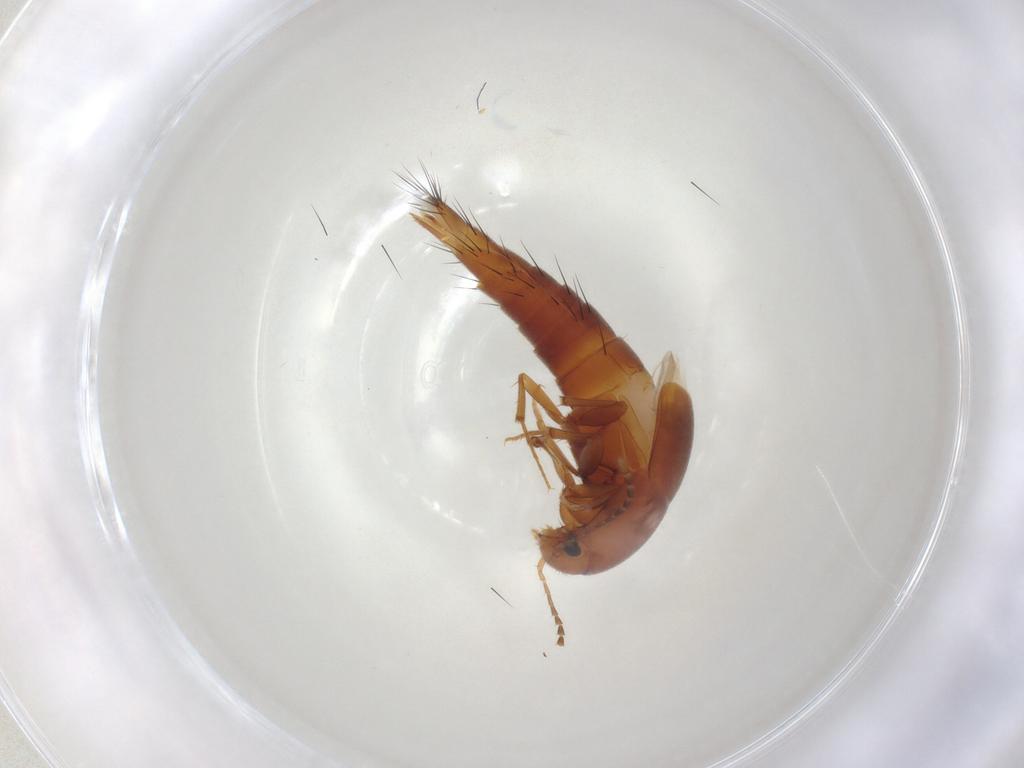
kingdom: Animalia
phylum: Arthropoda
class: Insecta
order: Coleoptera
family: Staphylinidae
